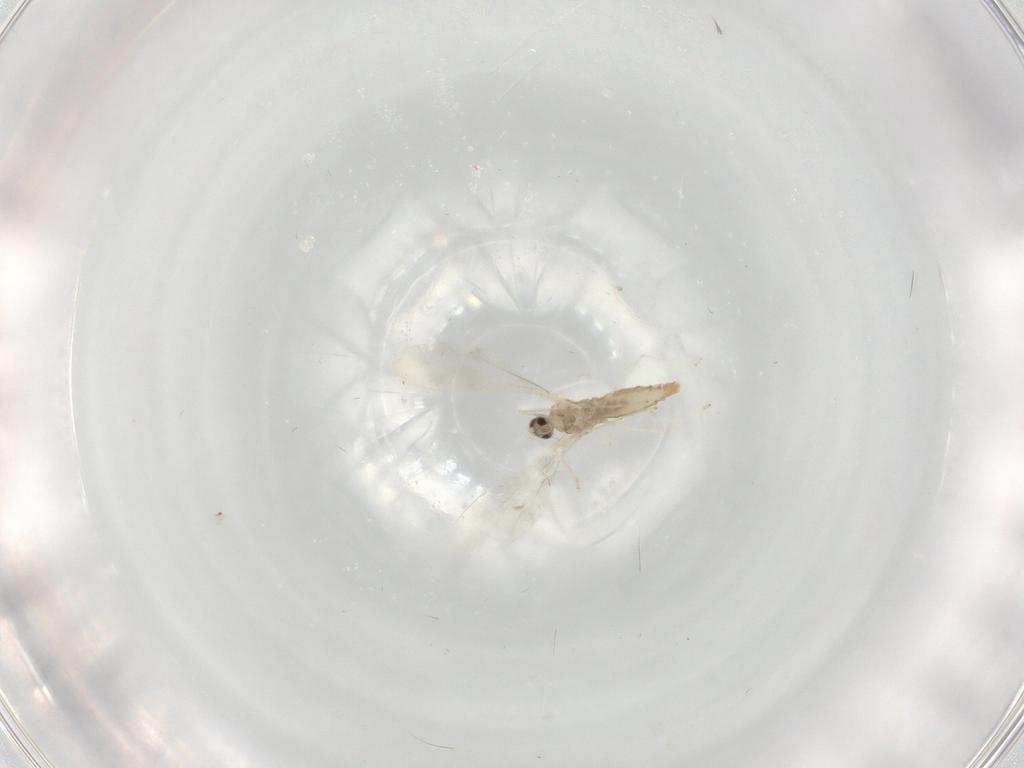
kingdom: Animalia
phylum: Arthropoda
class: Insecta
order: Diptera
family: Cecidomyiidae
